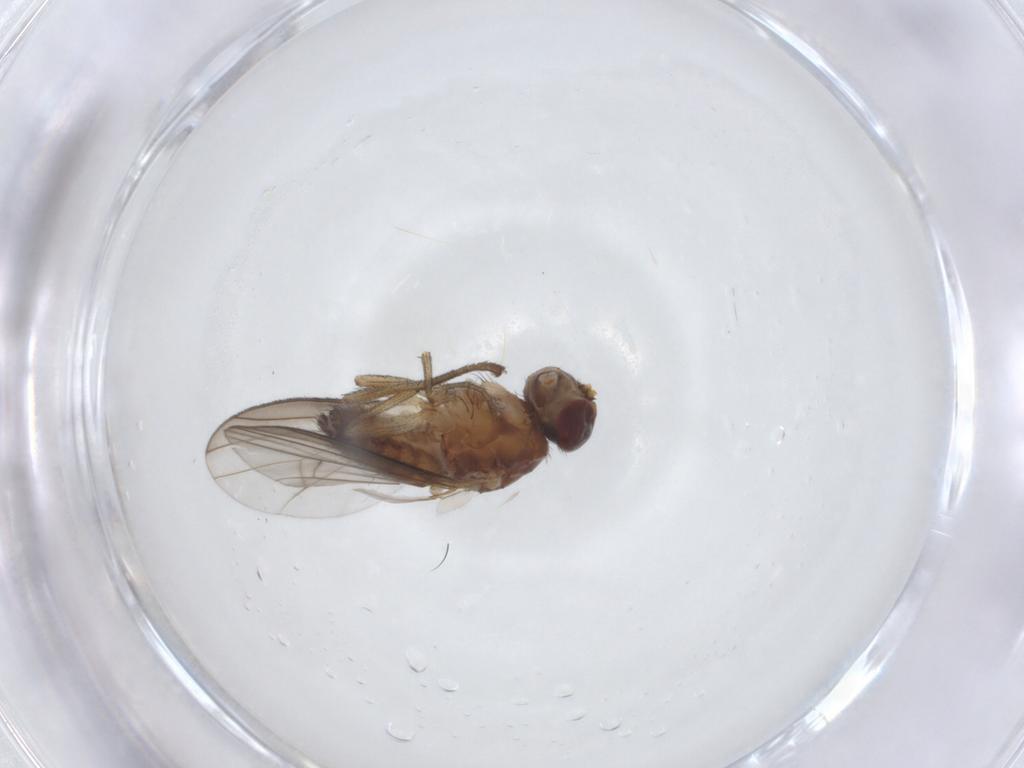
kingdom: Animalia
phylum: Arthropoda
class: Insecta
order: Diptera
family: Heleomyzidae
